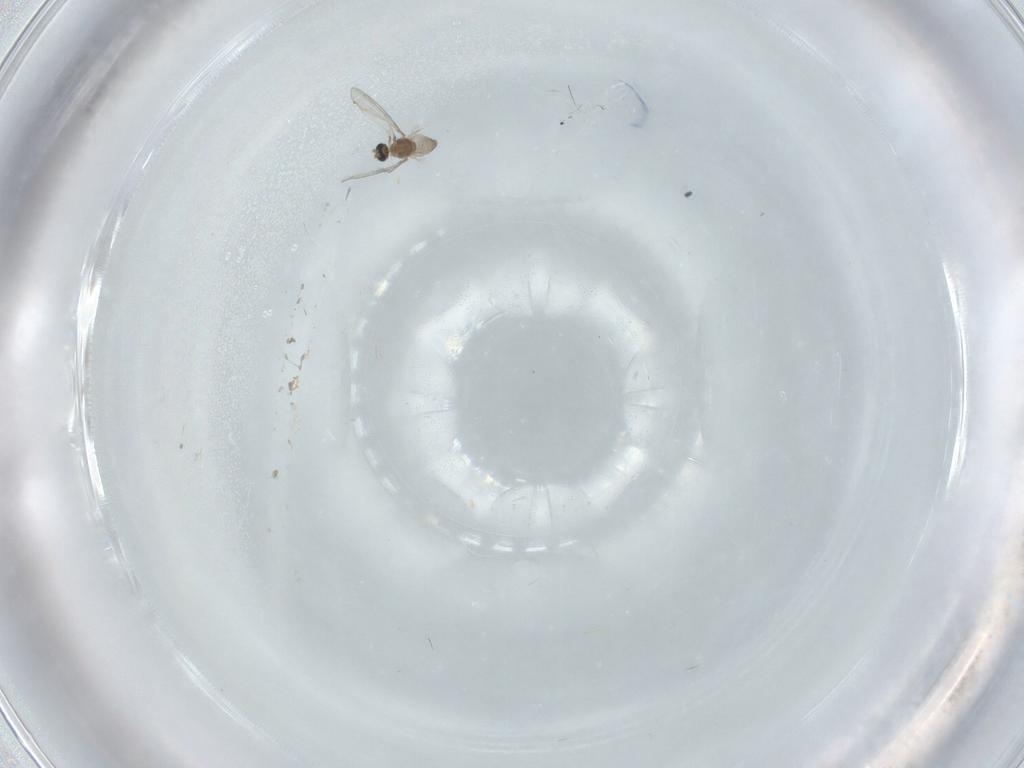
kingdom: Animalia
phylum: Arthropoda
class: Insecta
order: Diptera
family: Cecidomyiidae
